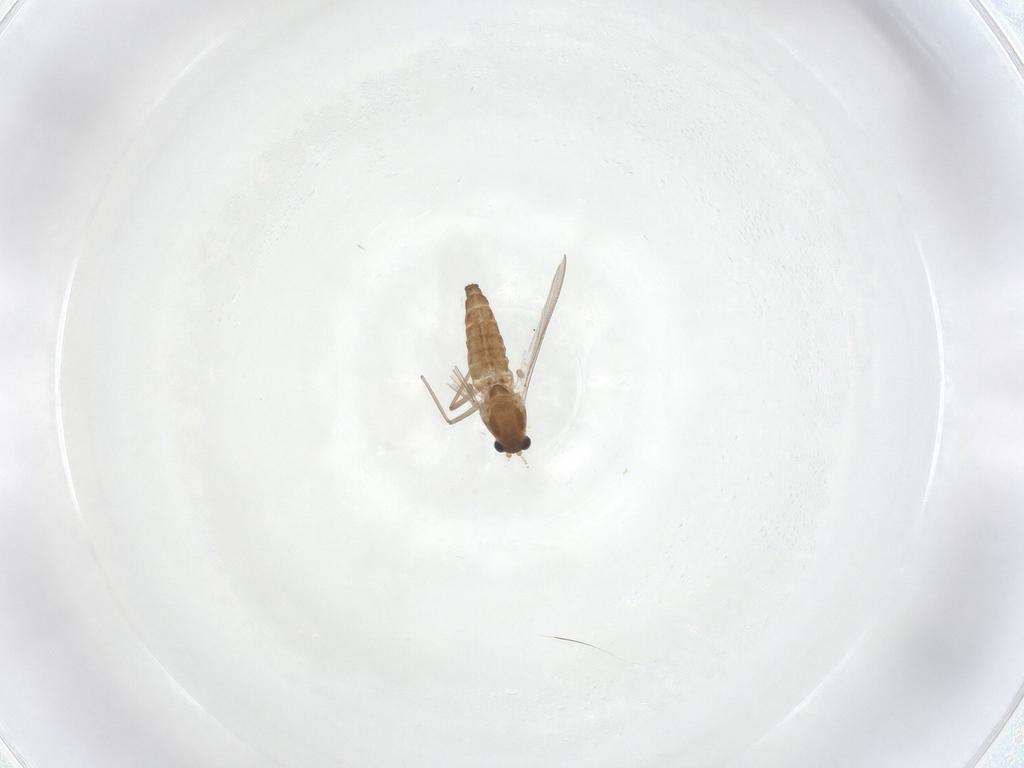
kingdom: Animalia
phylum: Arthropoda
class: Insecta
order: Diptera
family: Chironomidae
